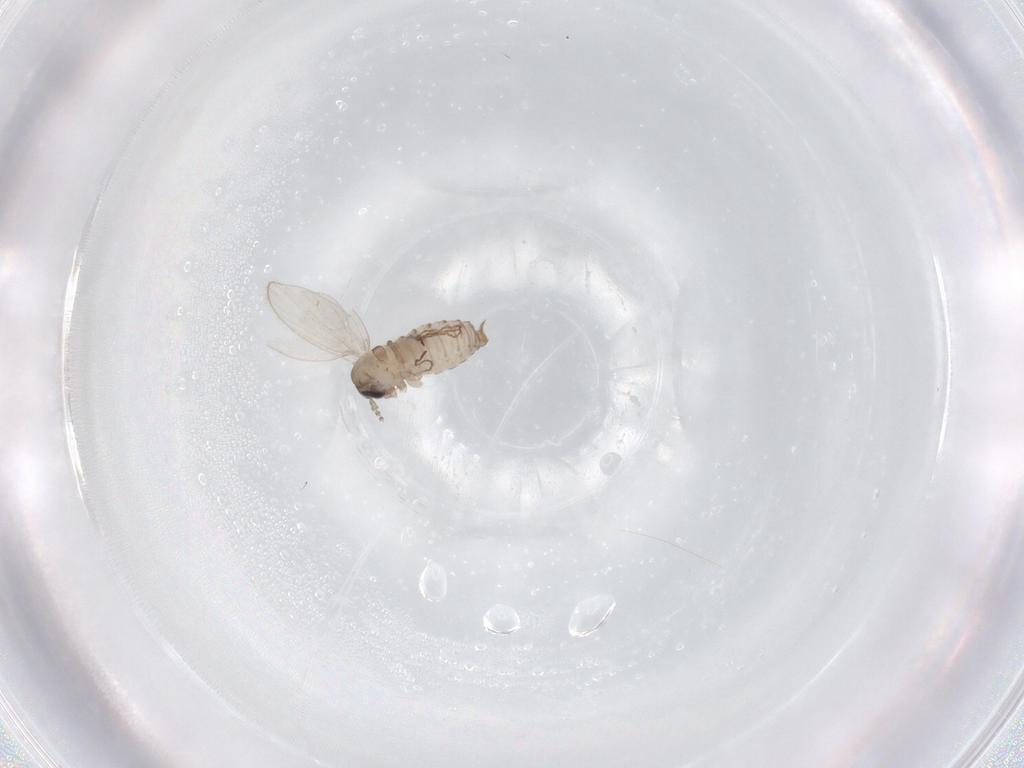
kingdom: Animalia
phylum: Arthropoda
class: Insecta
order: Diptera
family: Psychodidae
